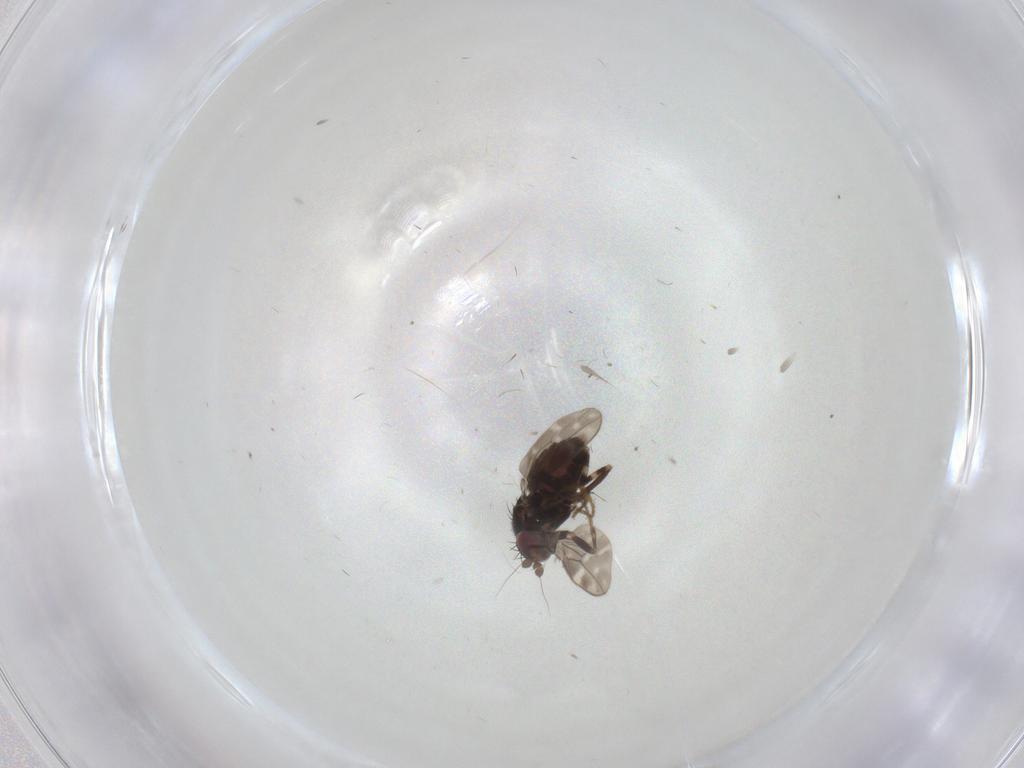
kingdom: Animalia
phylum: Arthropoda
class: Insecta
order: Diptera
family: Sphaeroceridae
